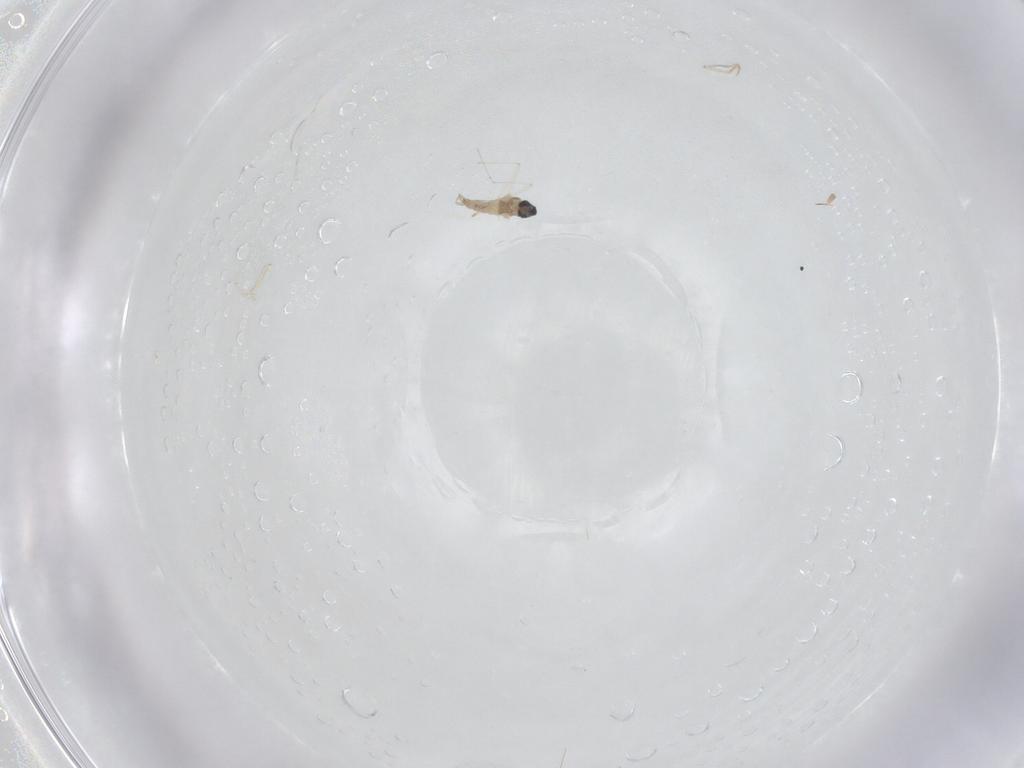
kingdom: Animalia
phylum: Arthropoda
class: Insecta
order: Diptera
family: Cecidomyiidae
